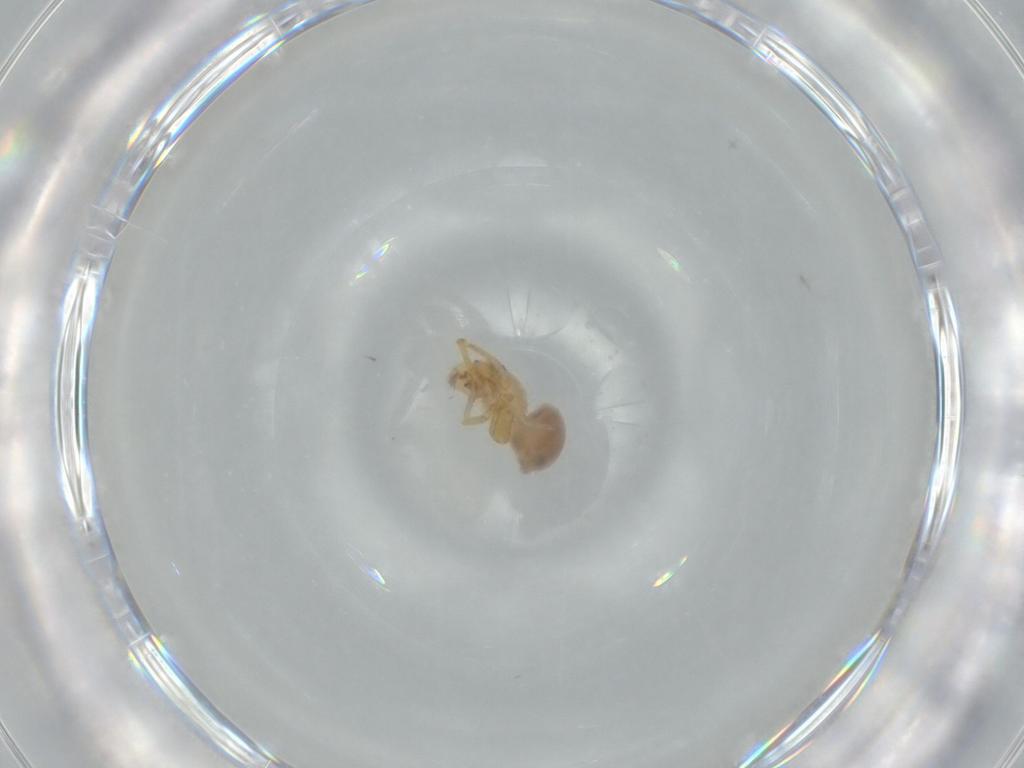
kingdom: Animalia
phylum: Arthropoda
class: Arachnida
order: Araneae
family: Oonopidae
